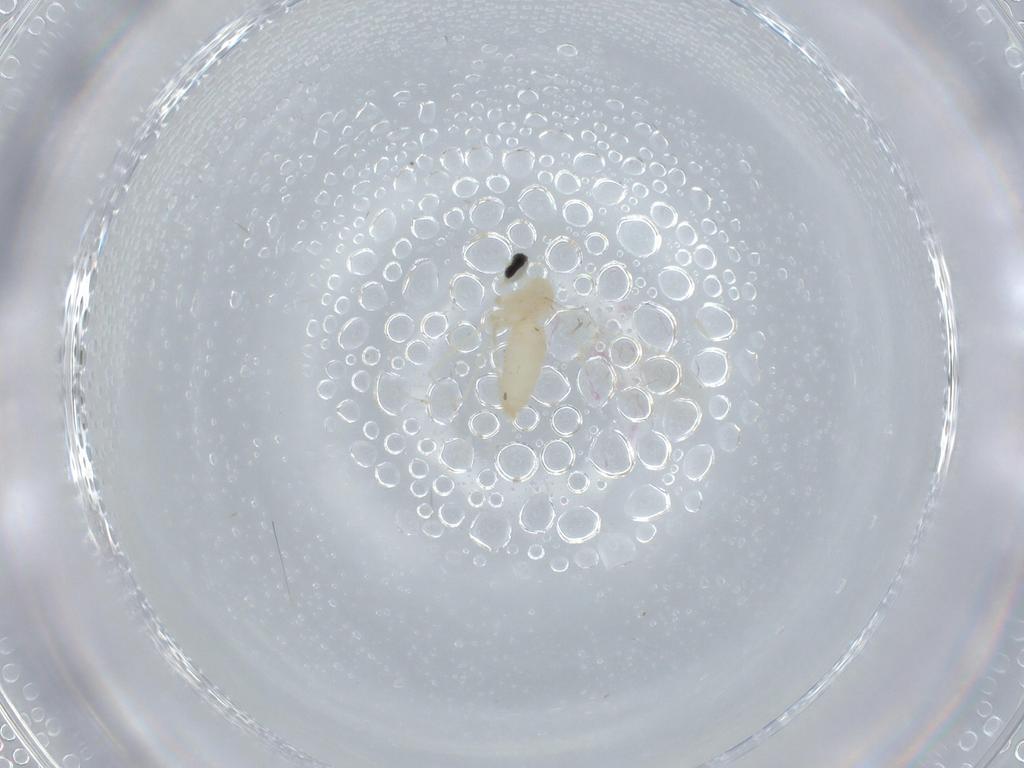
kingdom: Animalia
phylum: Arthropoda
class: Insecta
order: Diptera
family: Cecidomyiidae
